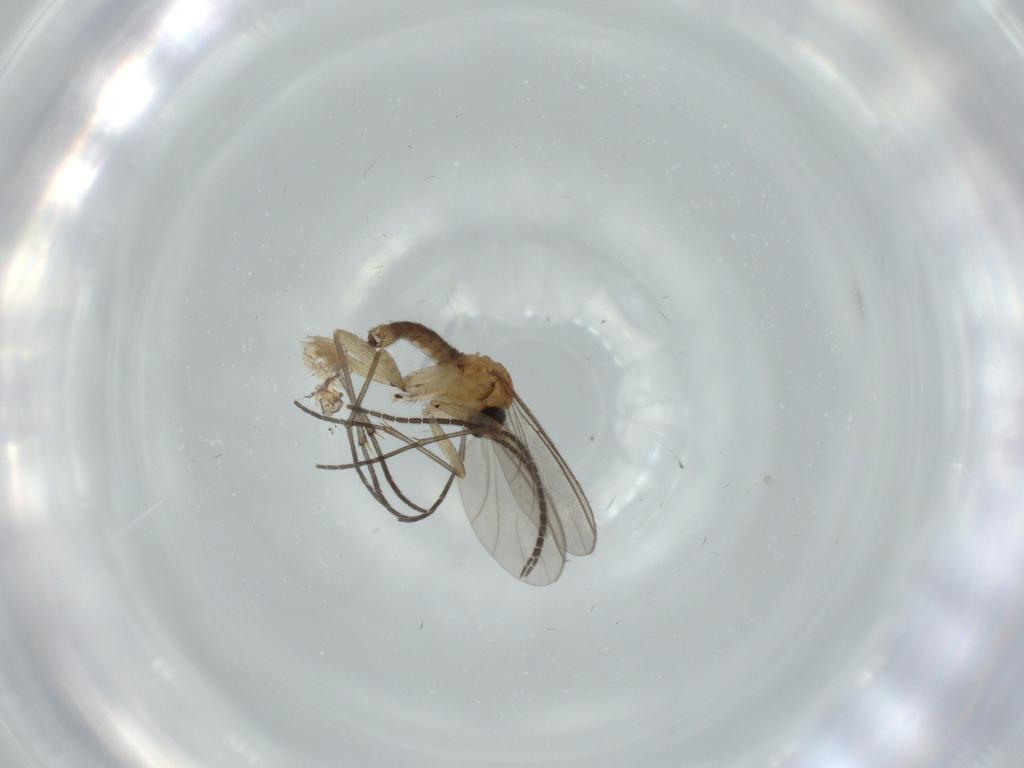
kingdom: Animalia
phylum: Arthropoda
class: Insecta
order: Diptera
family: Sciaridae
